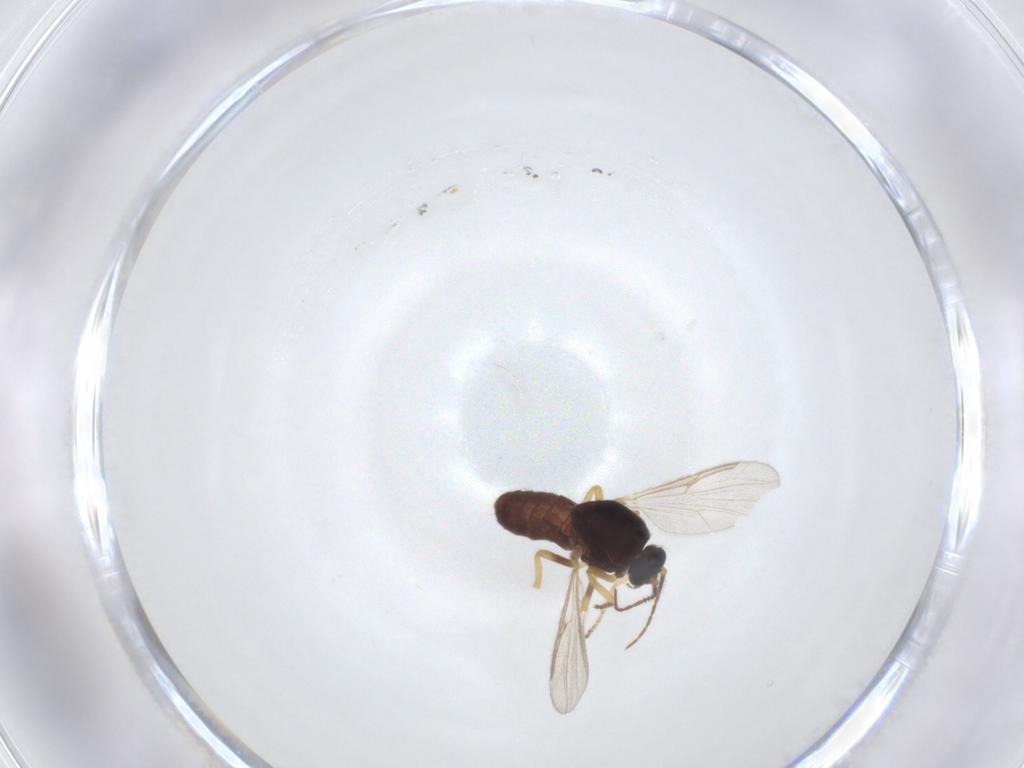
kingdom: Animalia
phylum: Arthropoda
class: Insecta
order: Diptera
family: Ceratopogonidae
